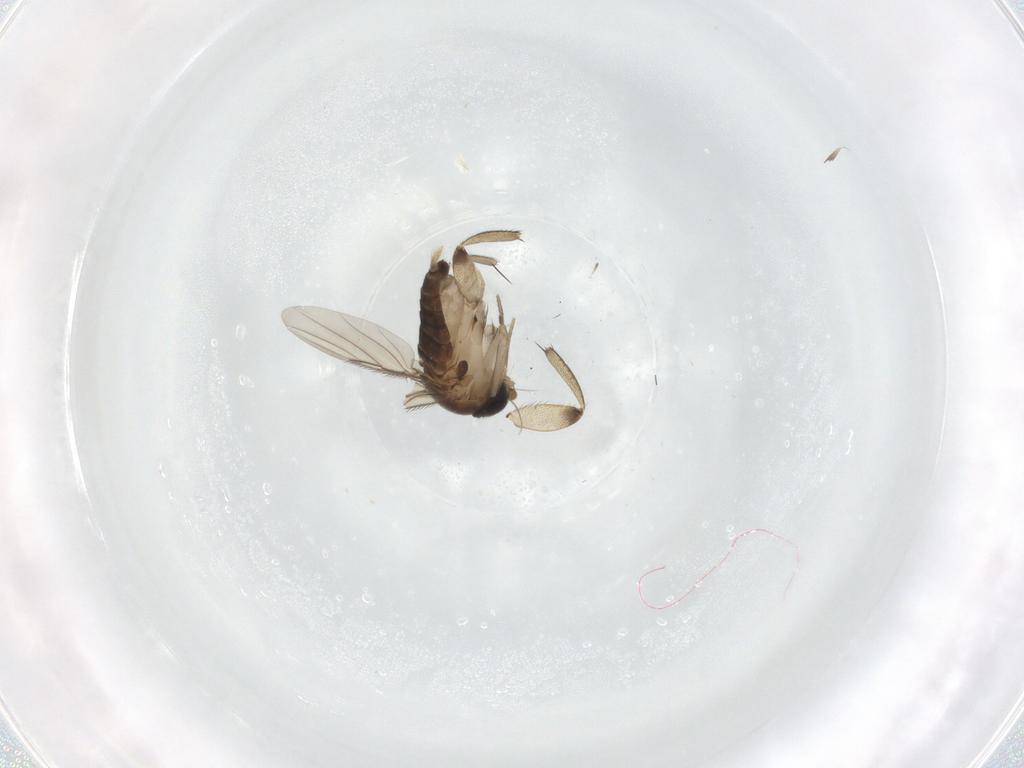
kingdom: Animalia
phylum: Arthropoda
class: Insecta
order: Diptera
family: Phoridae
